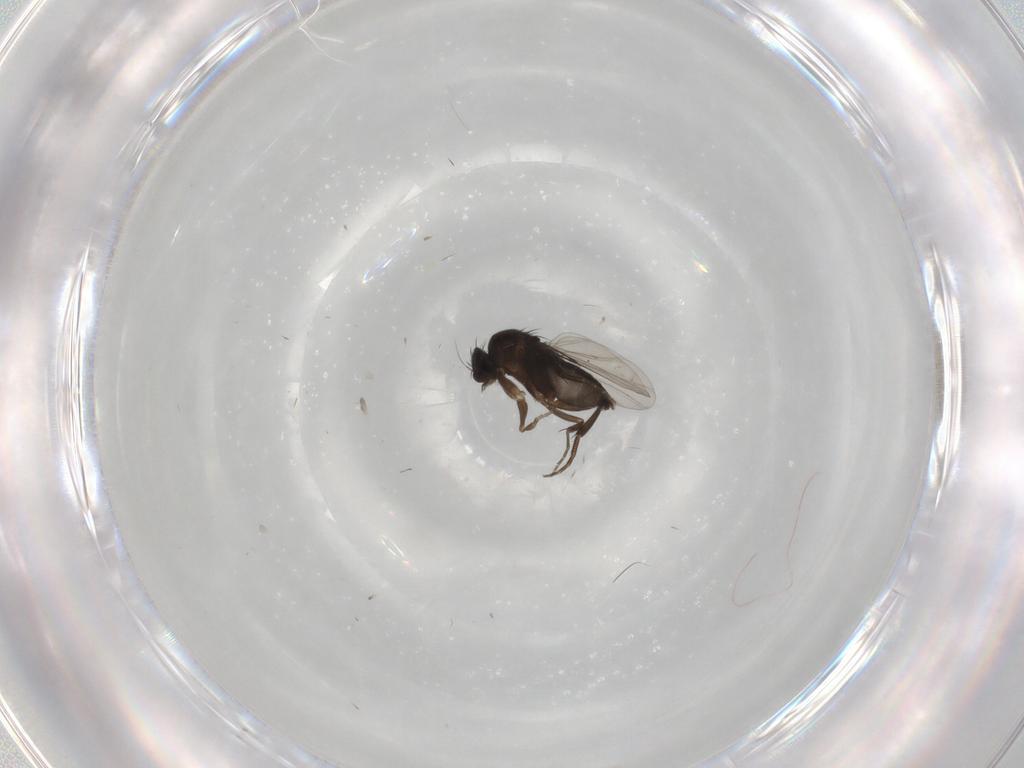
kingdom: Animalia
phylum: Arthropoda
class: Insecta
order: Diptera
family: Phoridae
